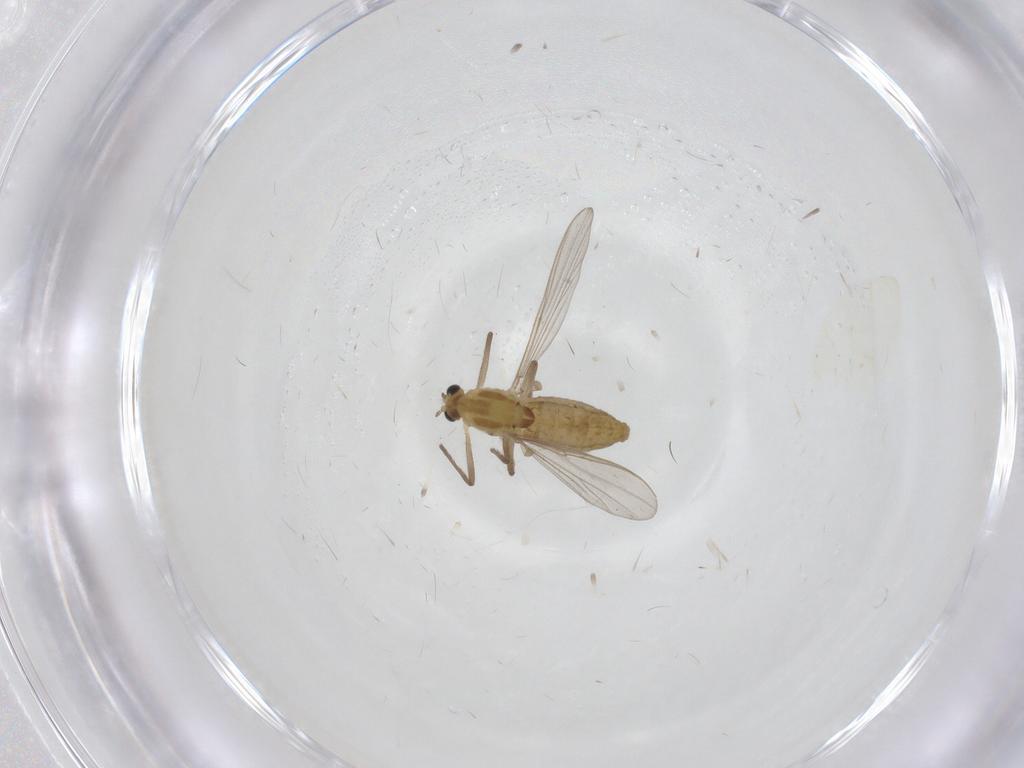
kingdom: Animalia
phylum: Arthropoda
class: Insecta
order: Diptera
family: Chironomidae
